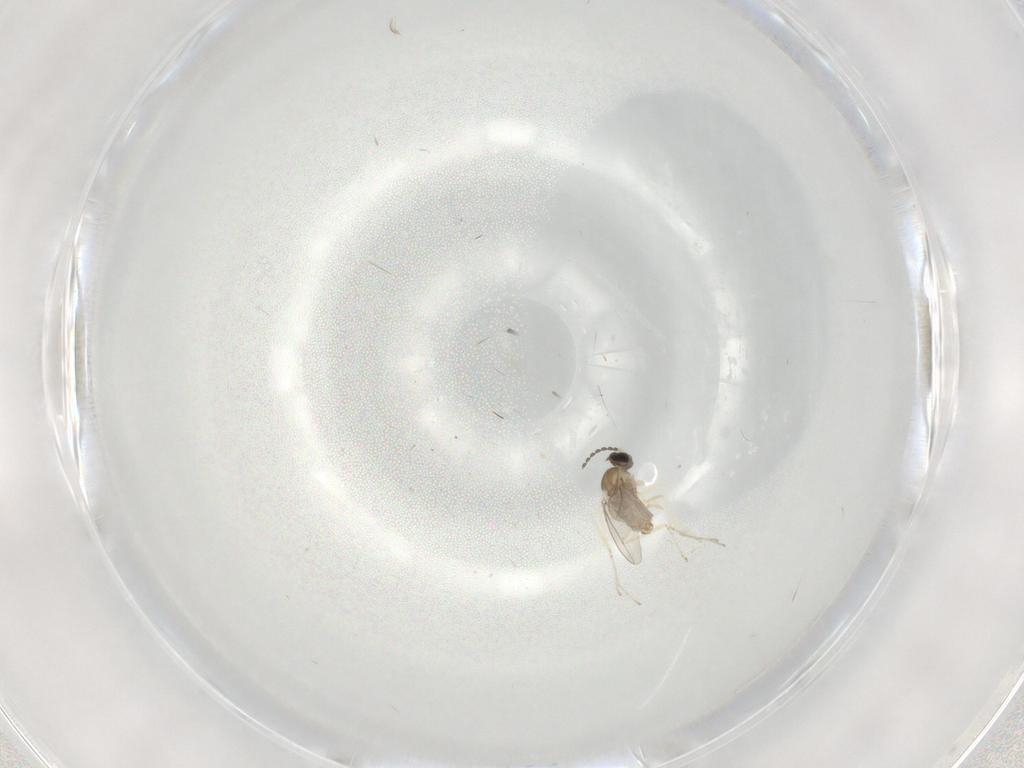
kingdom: Animalia
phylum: Arthropoda
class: Insecta
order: Diptera
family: Cecidomyiidae
